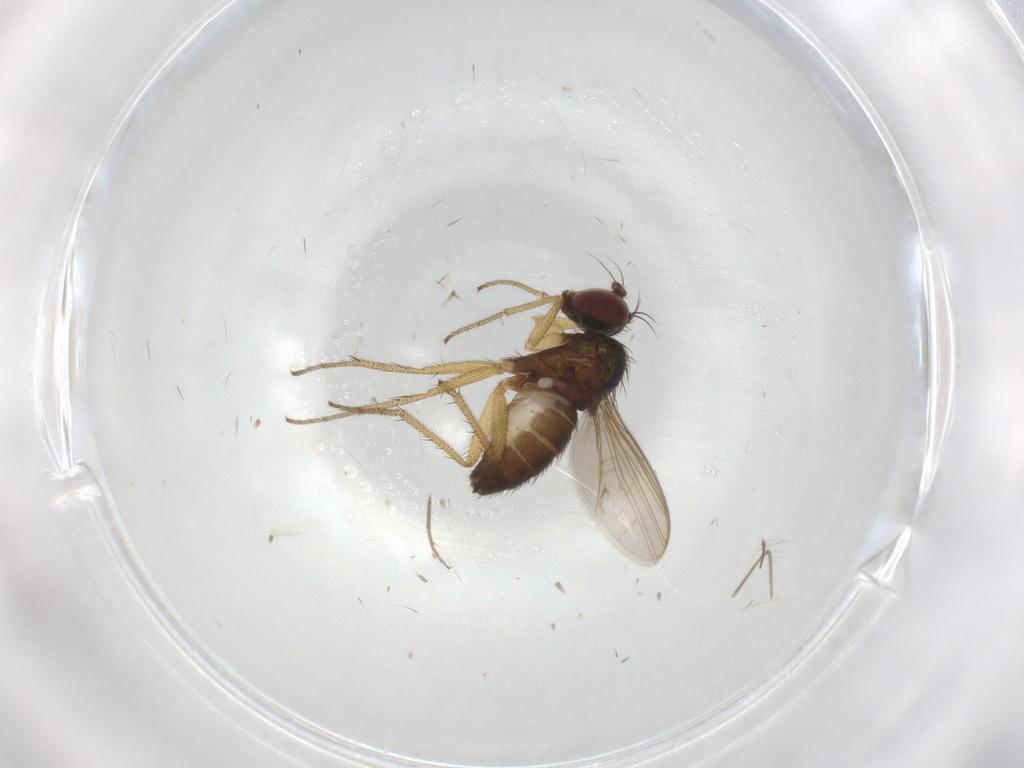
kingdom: Animalia
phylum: Arthropoda
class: Insecta
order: Diptera
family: Chironomidae
